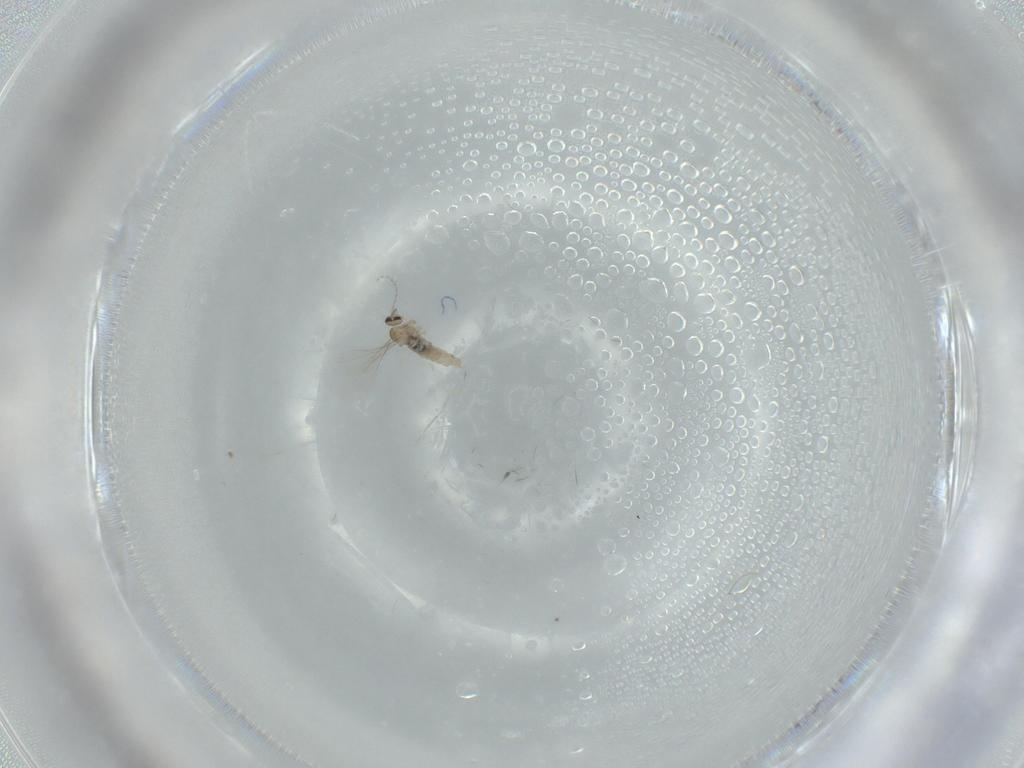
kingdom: Animalia
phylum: Arthropoda
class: Insecta
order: Diptera
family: Cecidomyiidae
